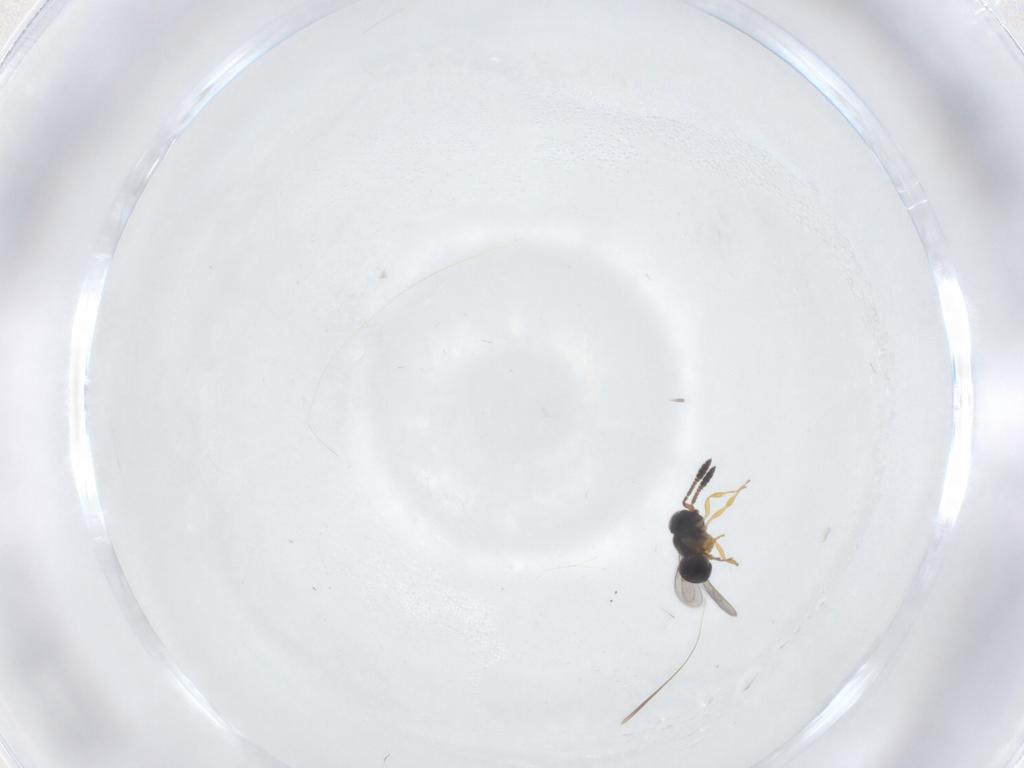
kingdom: Animalia
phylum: Arthropoda
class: Insecta
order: Hymenoptera
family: Scelionidae
